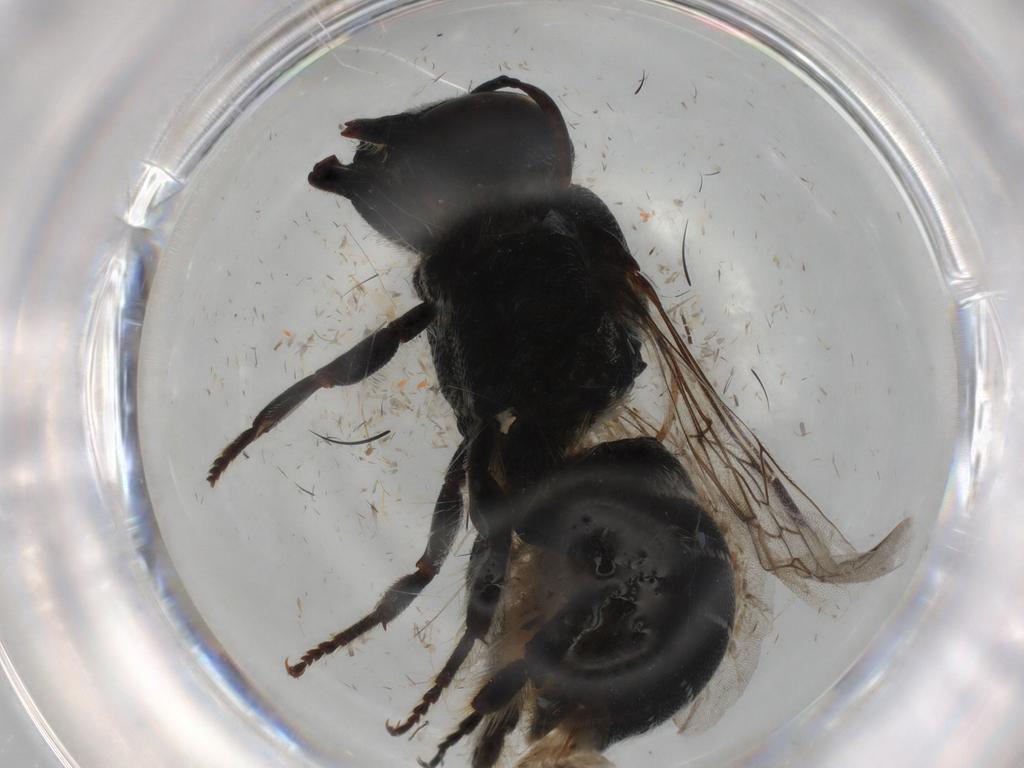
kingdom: Animalia
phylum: Arthropoda
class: Insecta
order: Hymenoptera
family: Megachilidae
